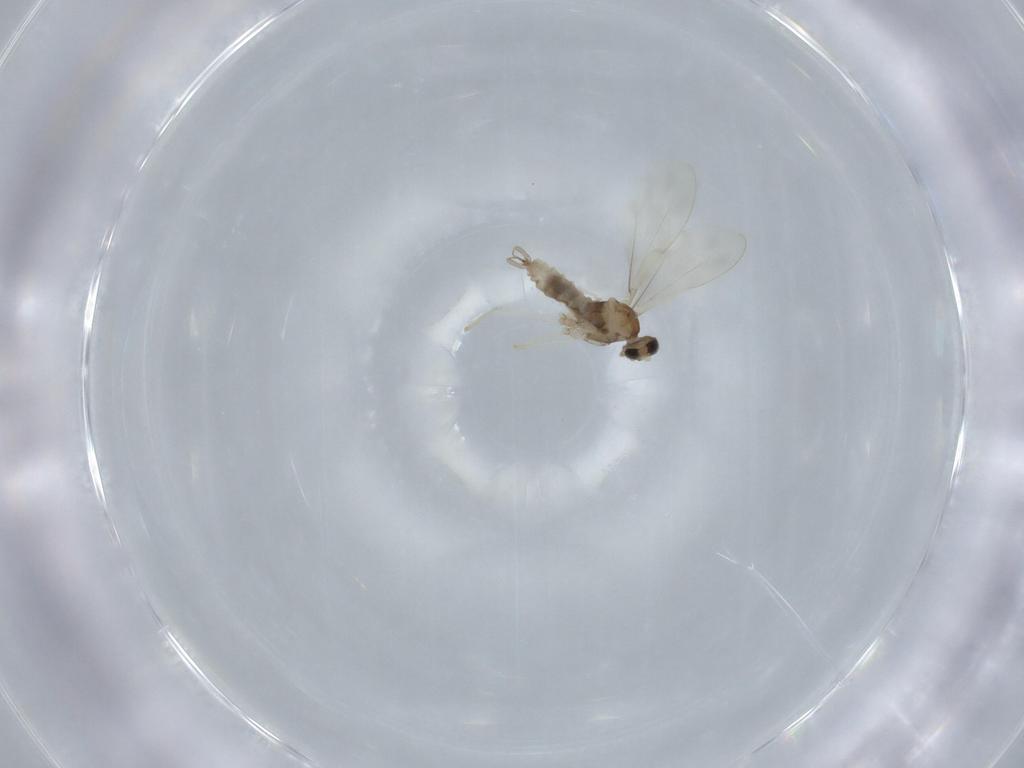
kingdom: Animalia
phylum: Arthropoda
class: Insecta
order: Diptera
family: Cecidomyiidae
